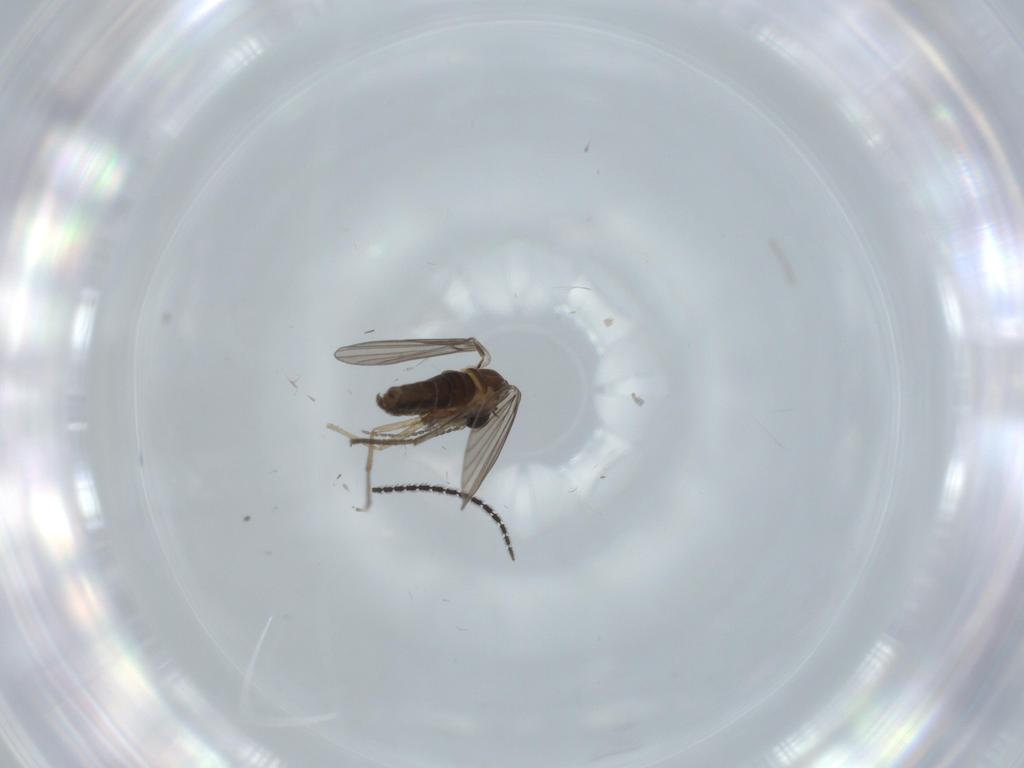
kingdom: Animalia
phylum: Arthropoda
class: Insecta
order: Diptera
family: Psychodidae
